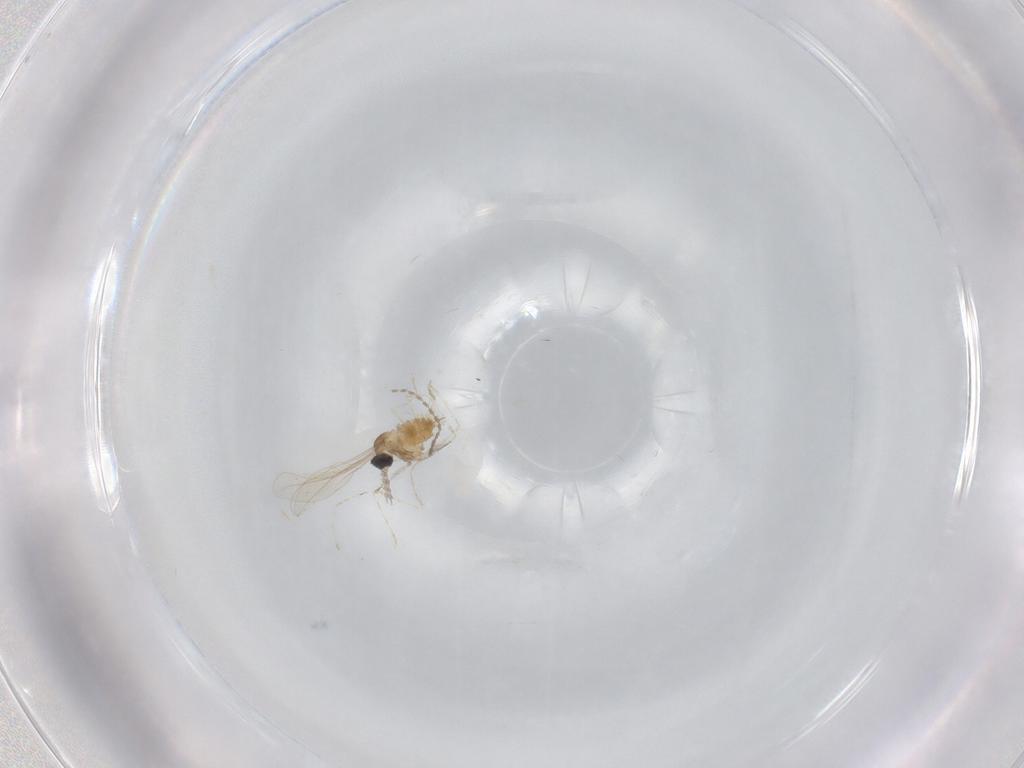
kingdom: Animalia
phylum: Arthropoda
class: Insecta
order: Diptera
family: Cecidomyiidae
